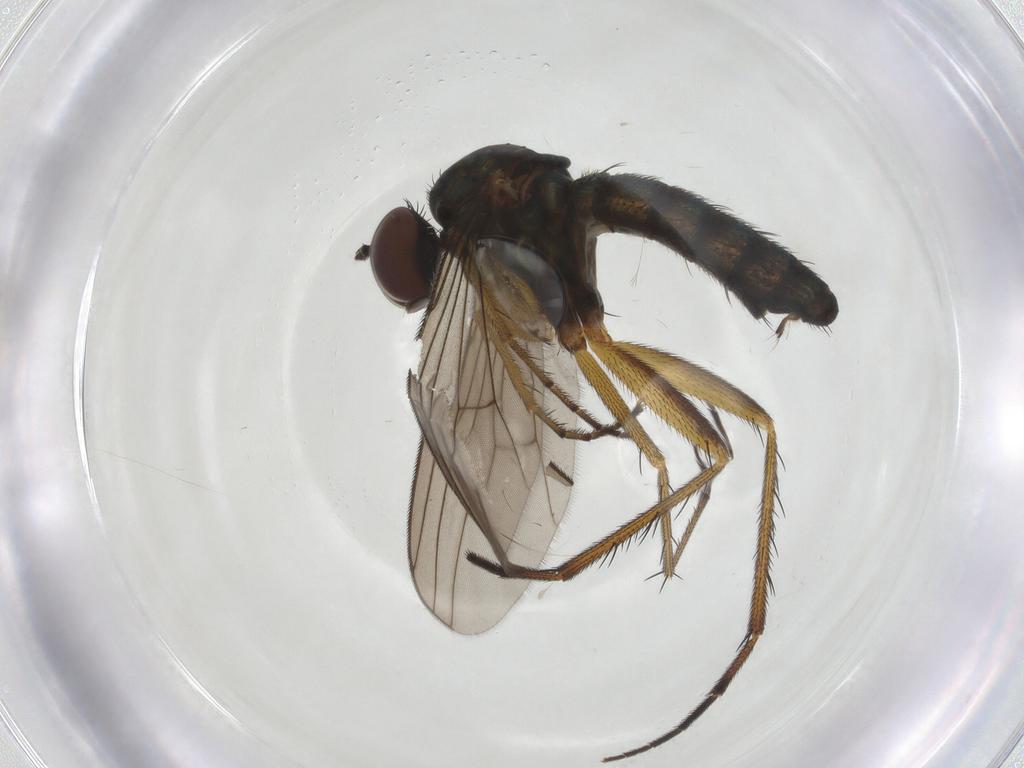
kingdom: Animalia
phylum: Arthropoda
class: Insecta
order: Diptera
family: Dolichopodidae
